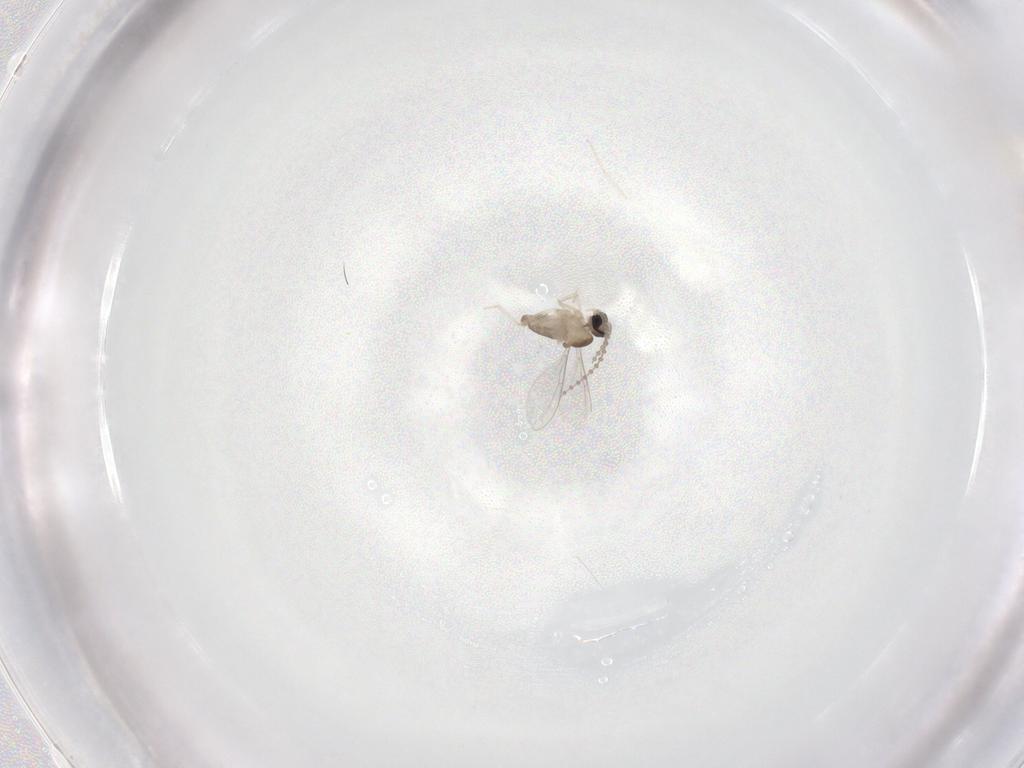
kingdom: Animalia
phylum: Arthropoda
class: Insecta
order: Diptera
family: Cecidomyiidae
